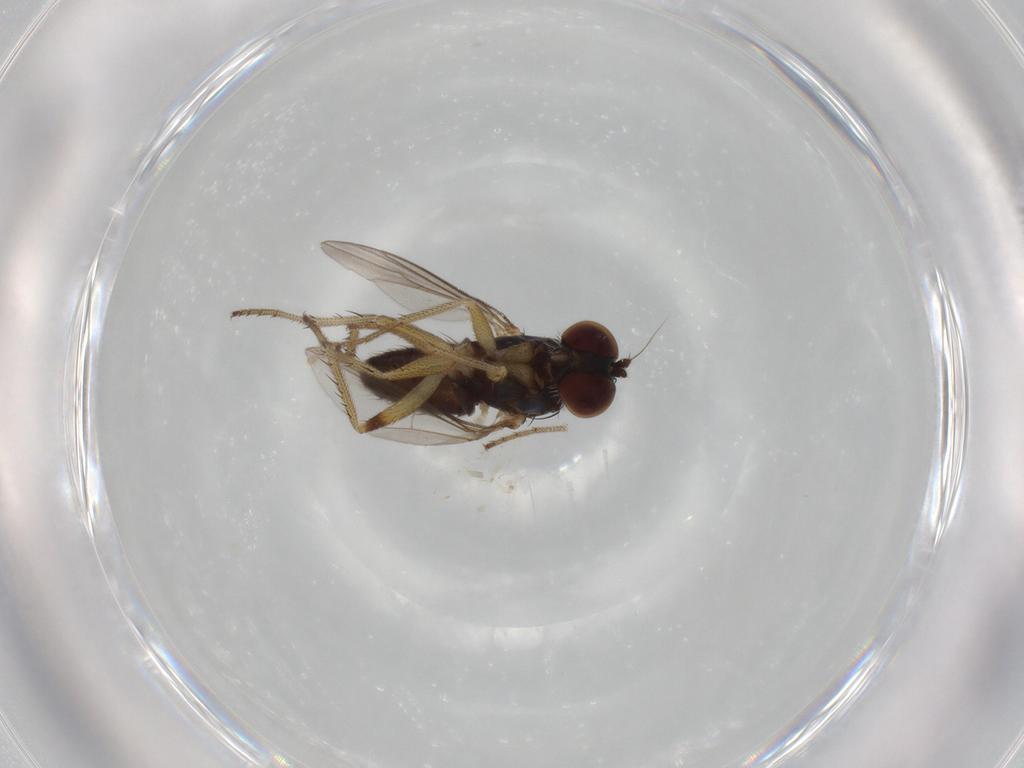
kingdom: Animalia
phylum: Arthropoda
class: Insecta
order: Diptera
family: Dolichopodidae
